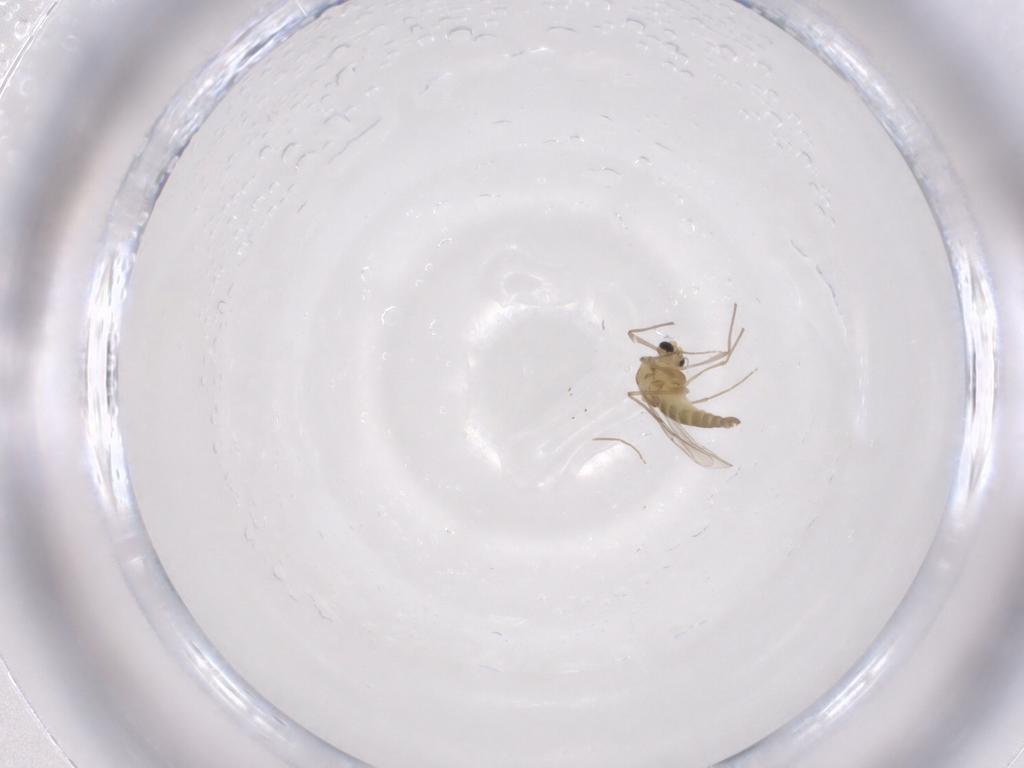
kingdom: Animalia
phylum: Arthropoda
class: Insecta
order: Diptera
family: Chironomidae
